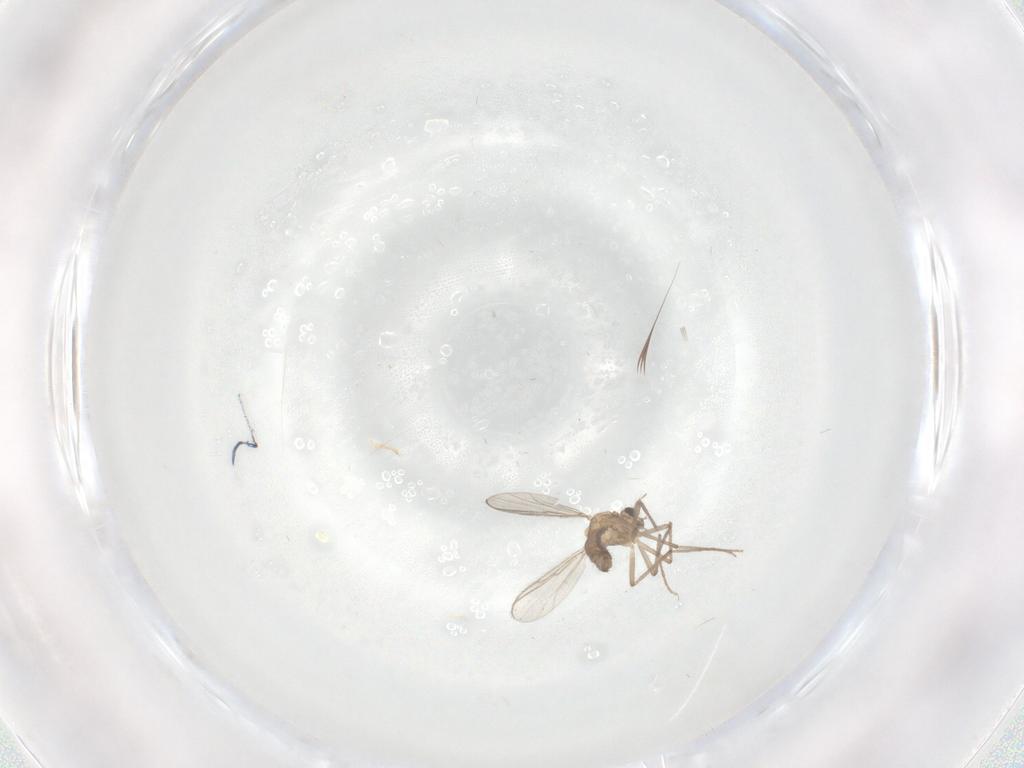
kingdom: Animalia
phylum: Arthropoda
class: Insecta
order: Diptera
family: Chironomidae
